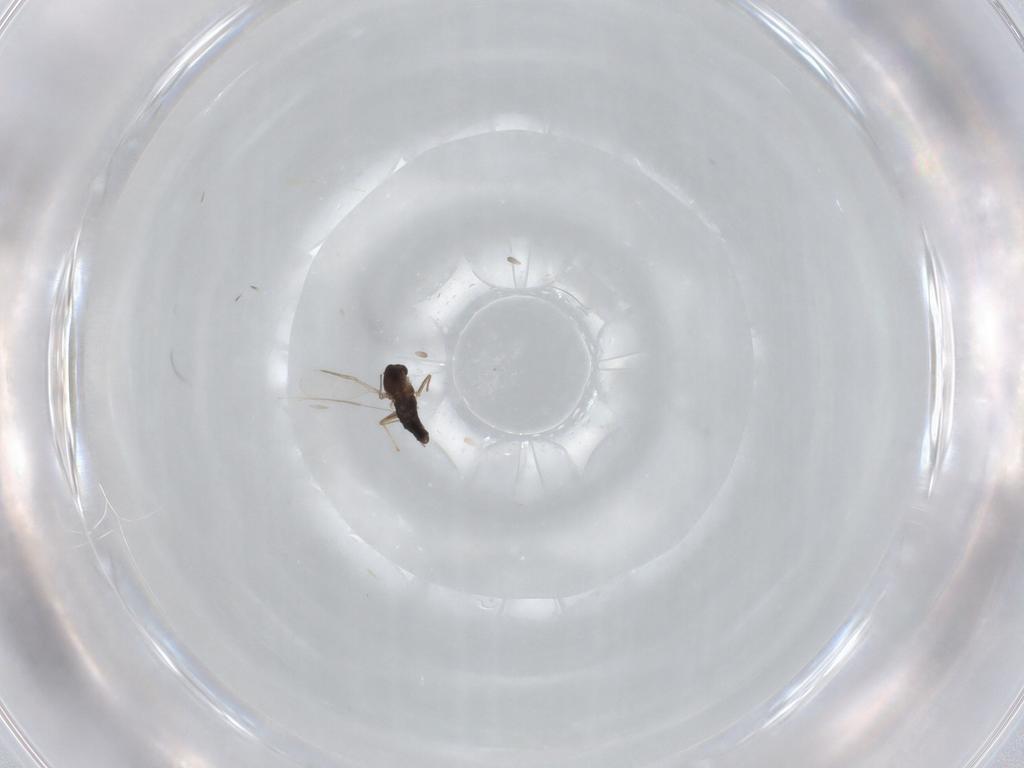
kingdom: Animalia
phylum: Arthropoda
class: Insecta
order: Diptera
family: Chironomidae
